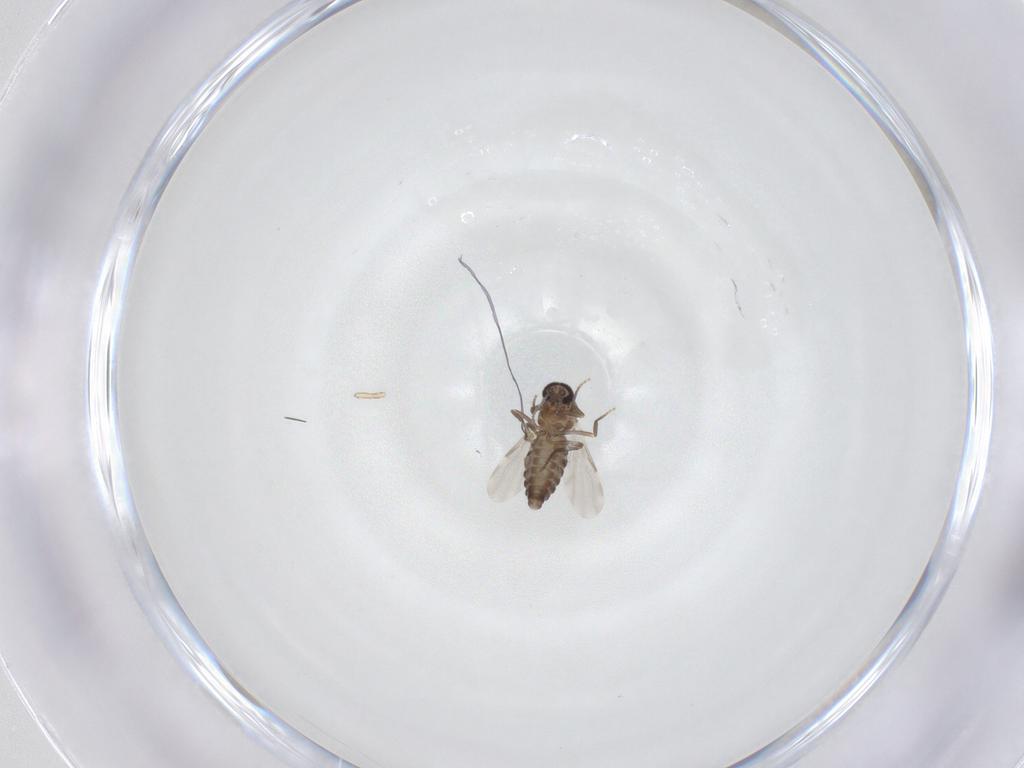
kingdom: Animalia
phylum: Arthropoda
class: Insecta
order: Diptera
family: Ceratopogonidae
